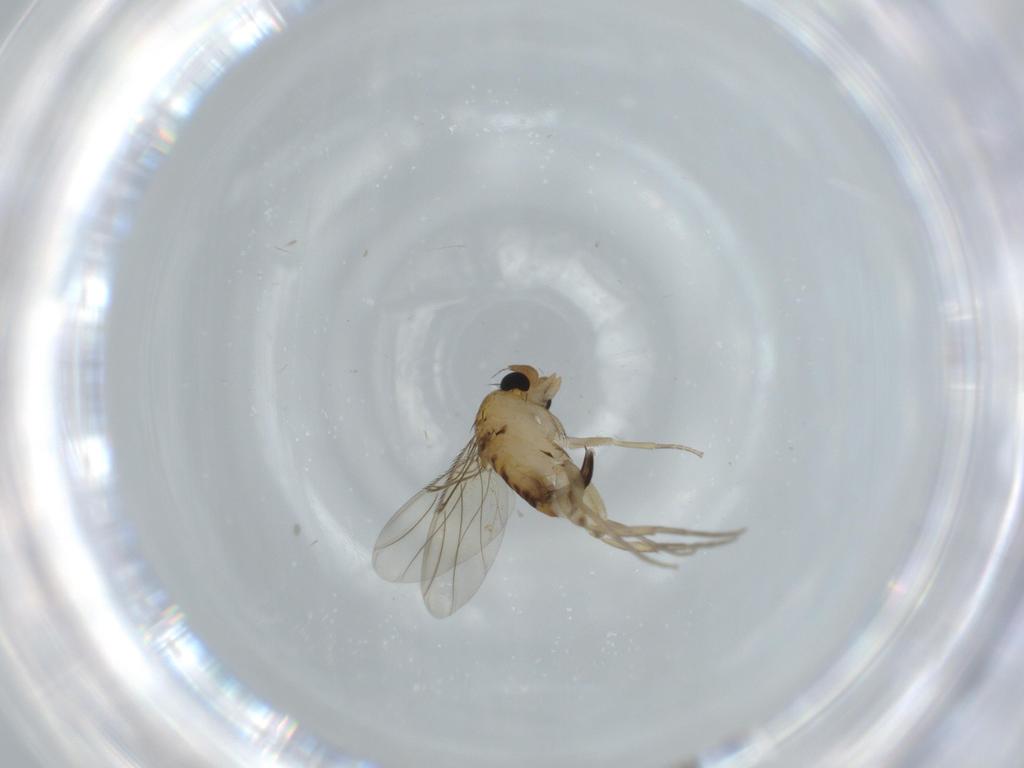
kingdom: Animalia
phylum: Arthropoda
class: Insecta
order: Diptera
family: Phoridae
